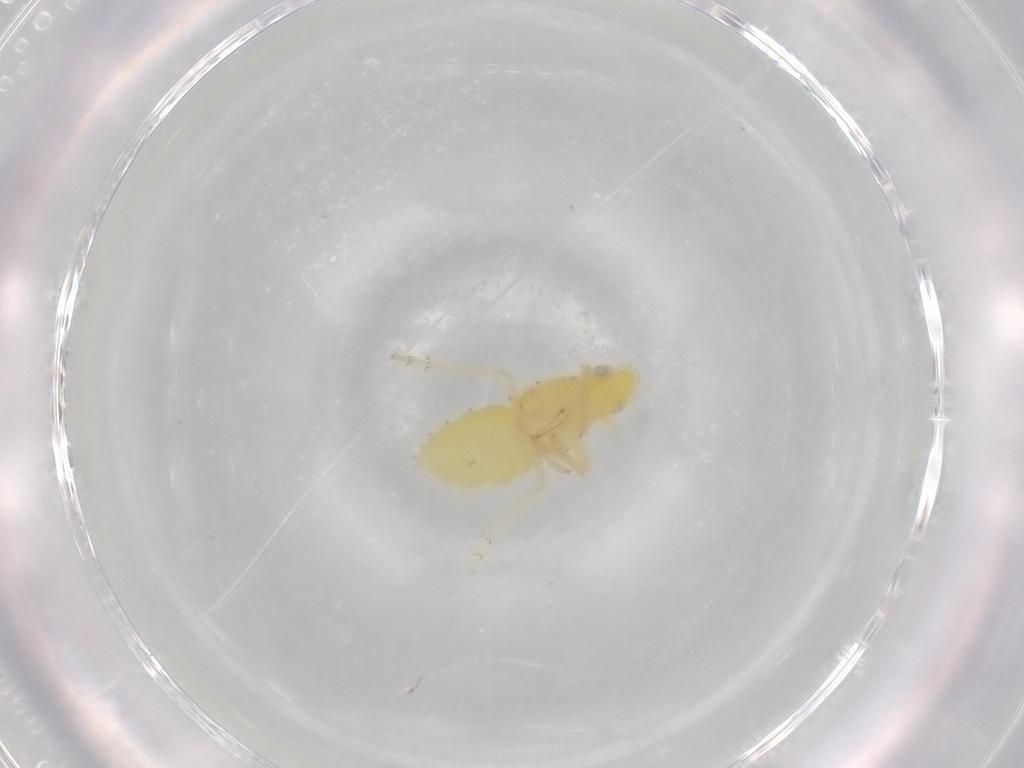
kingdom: Animalia
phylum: Arthropoda
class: Insecta
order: Hemiptera
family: Tropiduchidae
